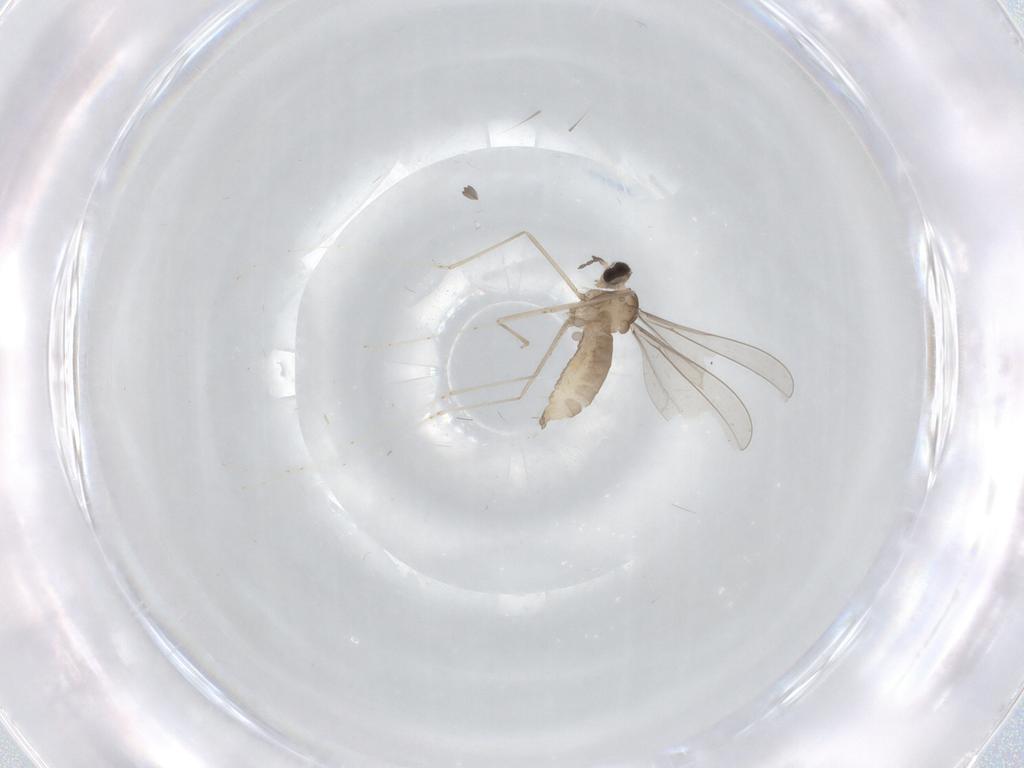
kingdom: Animalia
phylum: Arthropoda
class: Insecta
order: Diptera
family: Cecidomyiidae
